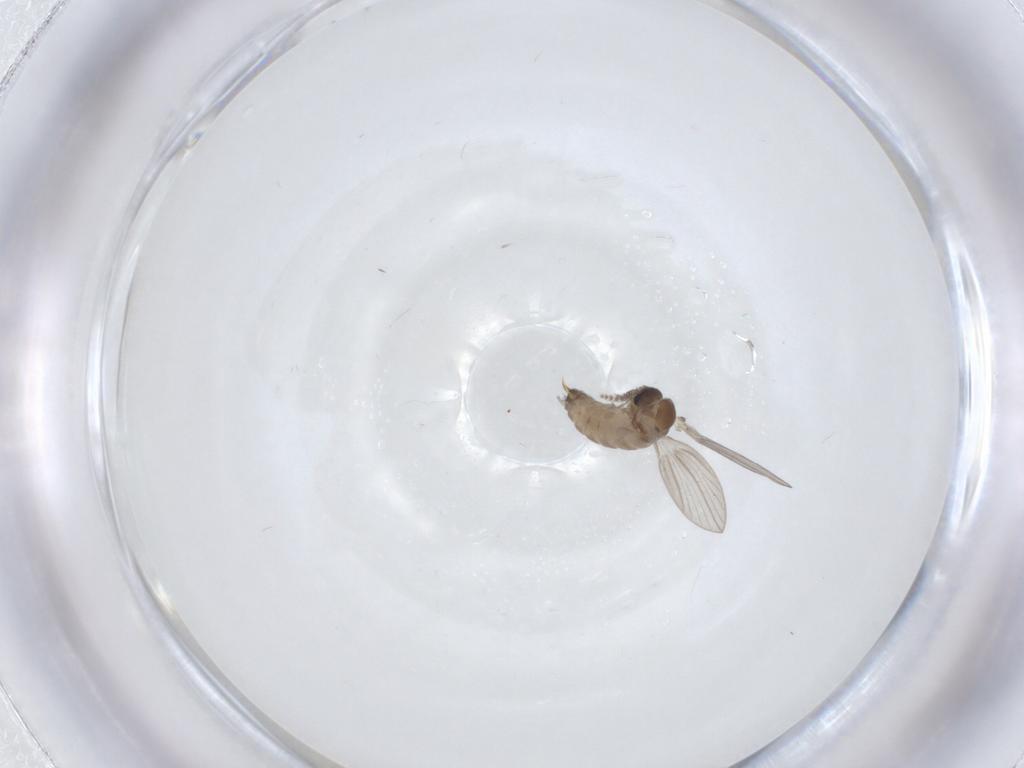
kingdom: Animalia
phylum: Arthropoda
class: Insecta
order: Diptera
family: Psychodidae
